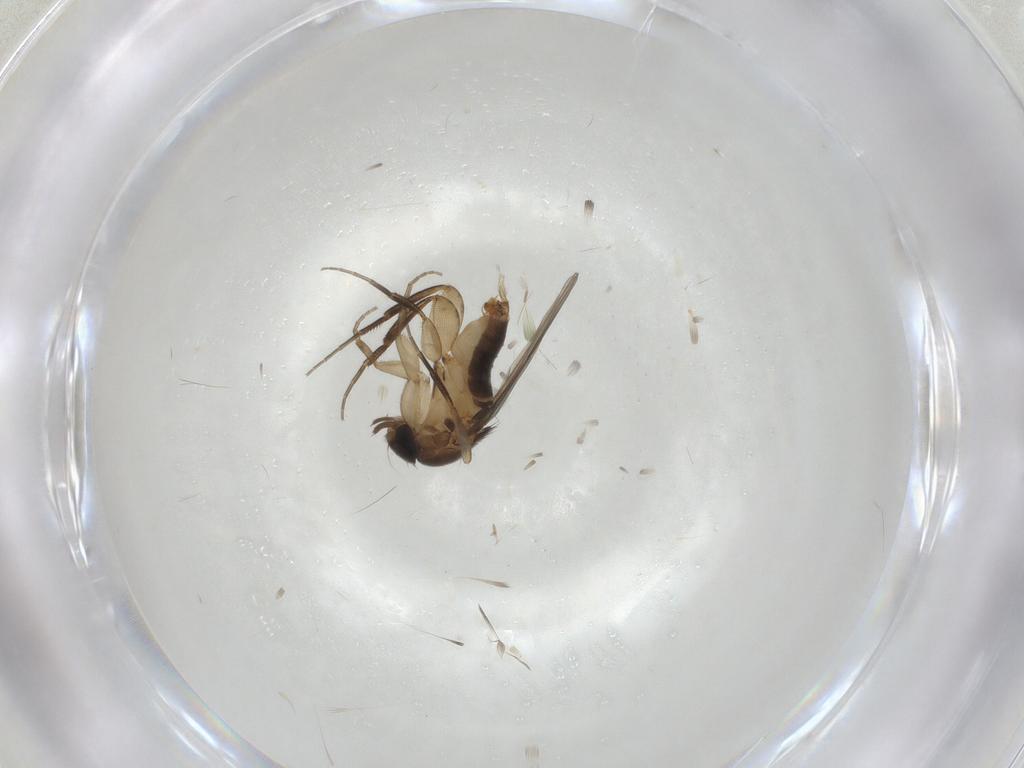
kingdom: Animalia
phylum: Arthropoda
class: Insecta
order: Diptera
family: Phoridae
